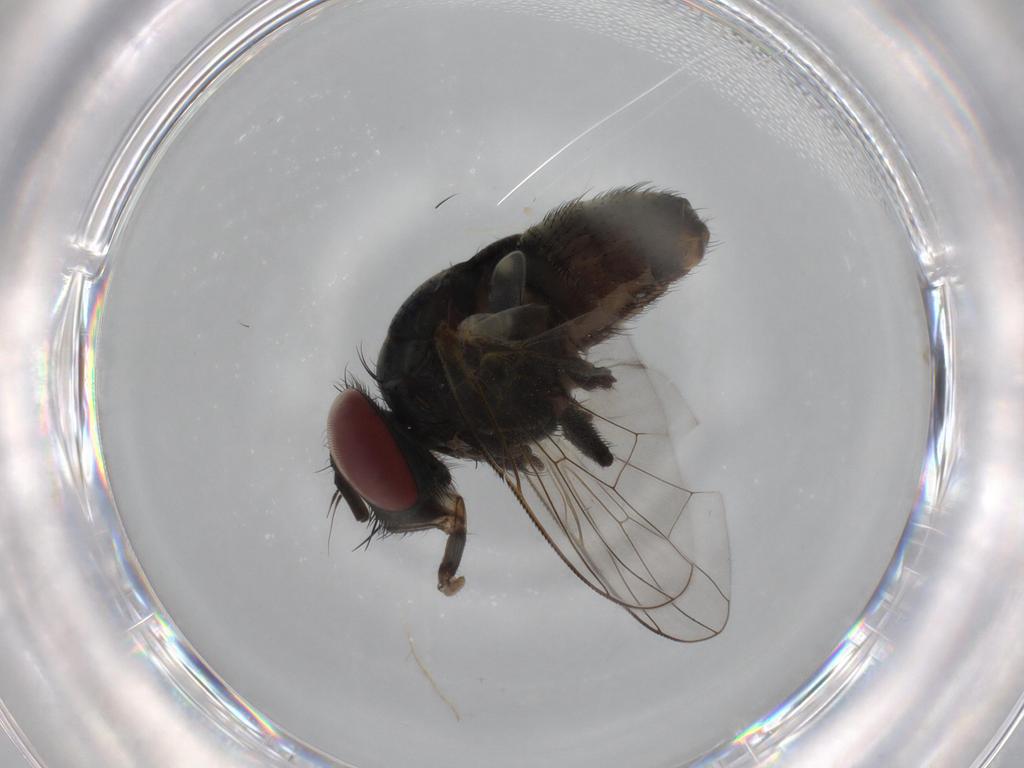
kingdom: Animalia
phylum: Arthropoda
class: Insecta
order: Diptera
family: Muscidae
